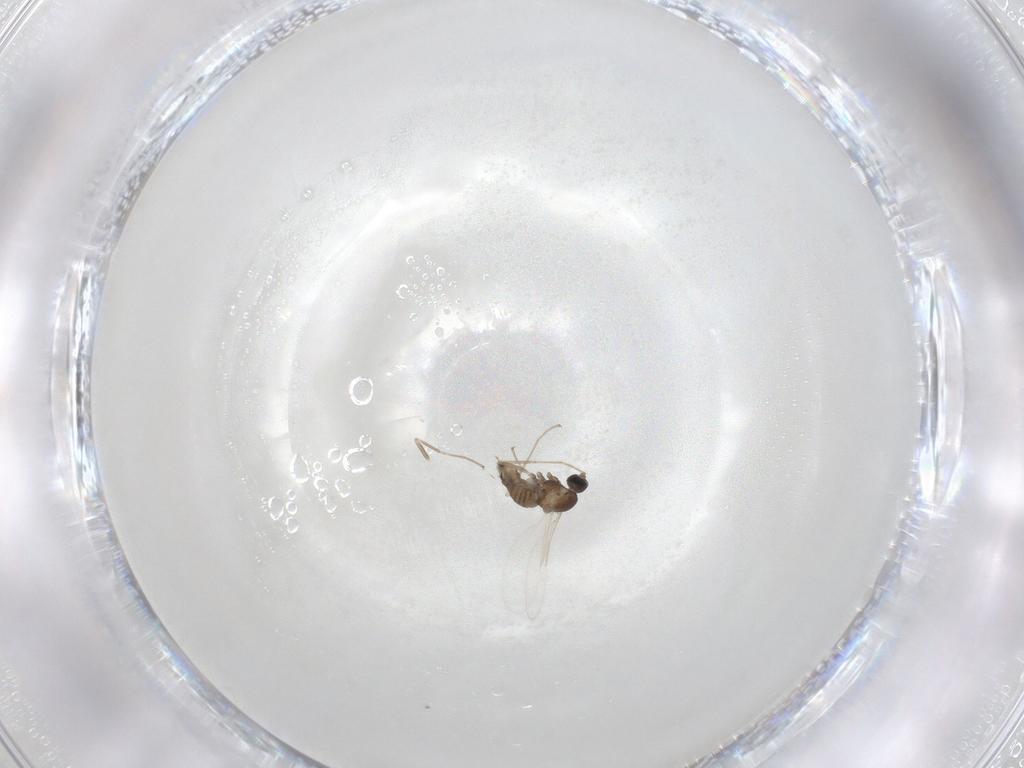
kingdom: Animalia
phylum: Arthropoda
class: Insecta
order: Diptera
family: Cecidomyiidae
